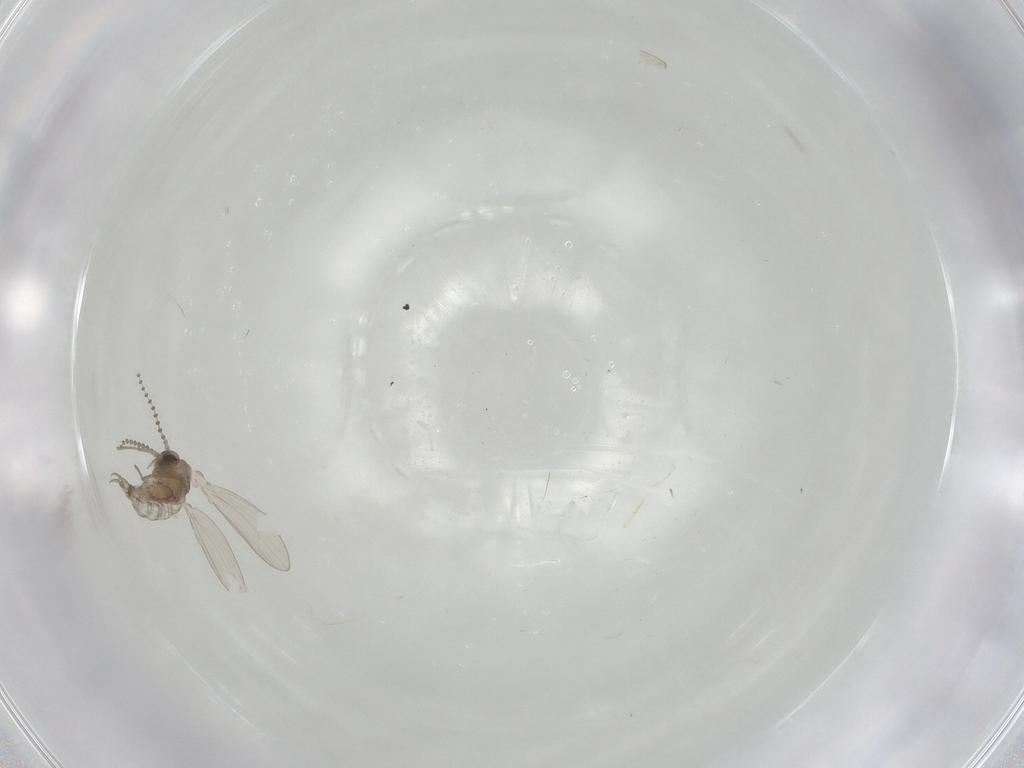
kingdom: Animalia
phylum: Arthropoda
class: Insecta
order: Diptera
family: Psychodidae
